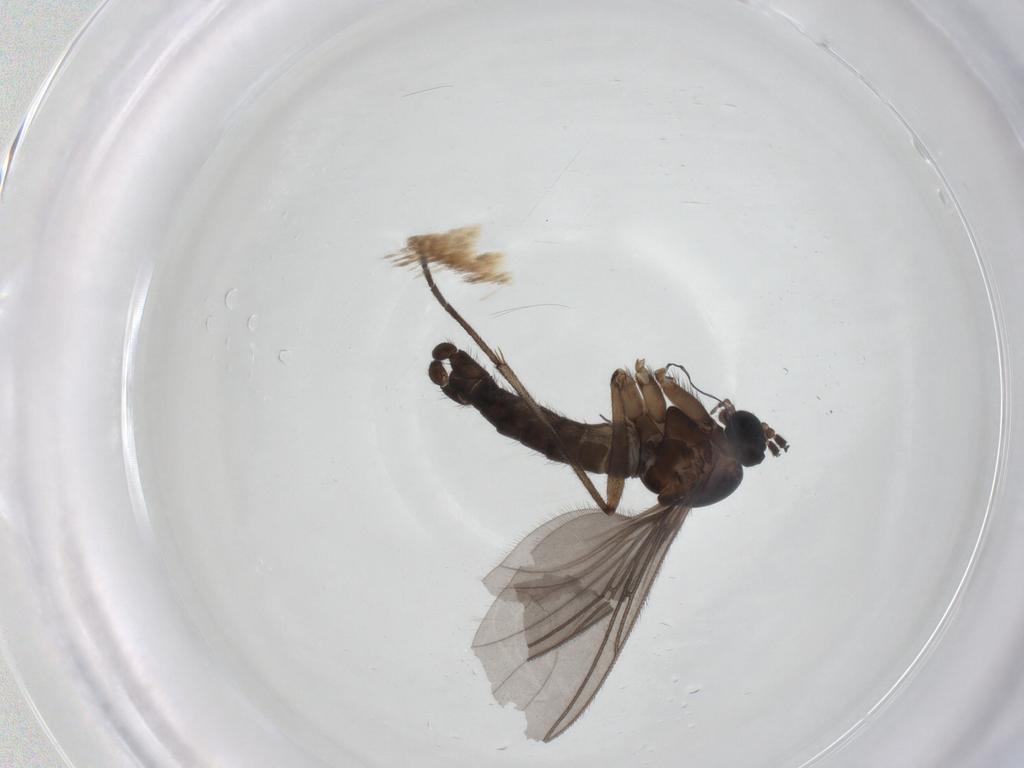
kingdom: Animalia
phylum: Arthropoda
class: Insecta
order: Diptera
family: Sciaridae
